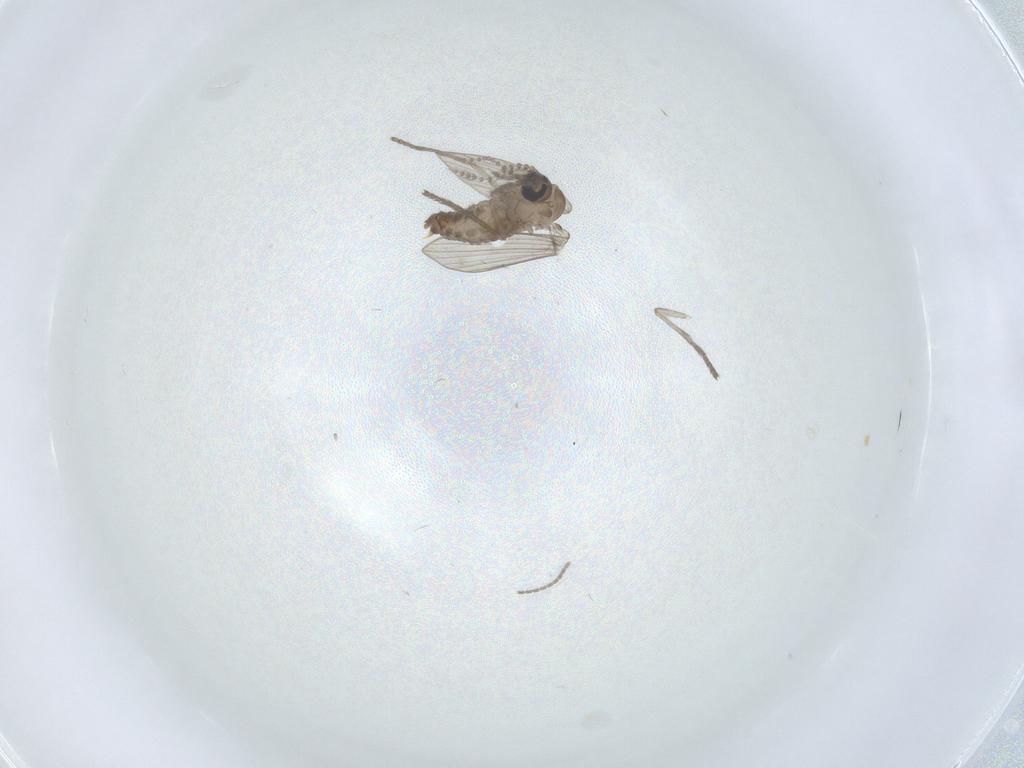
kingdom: Animalia
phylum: Arthropoda
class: Insecta
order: Diptera
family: Psychodidae
